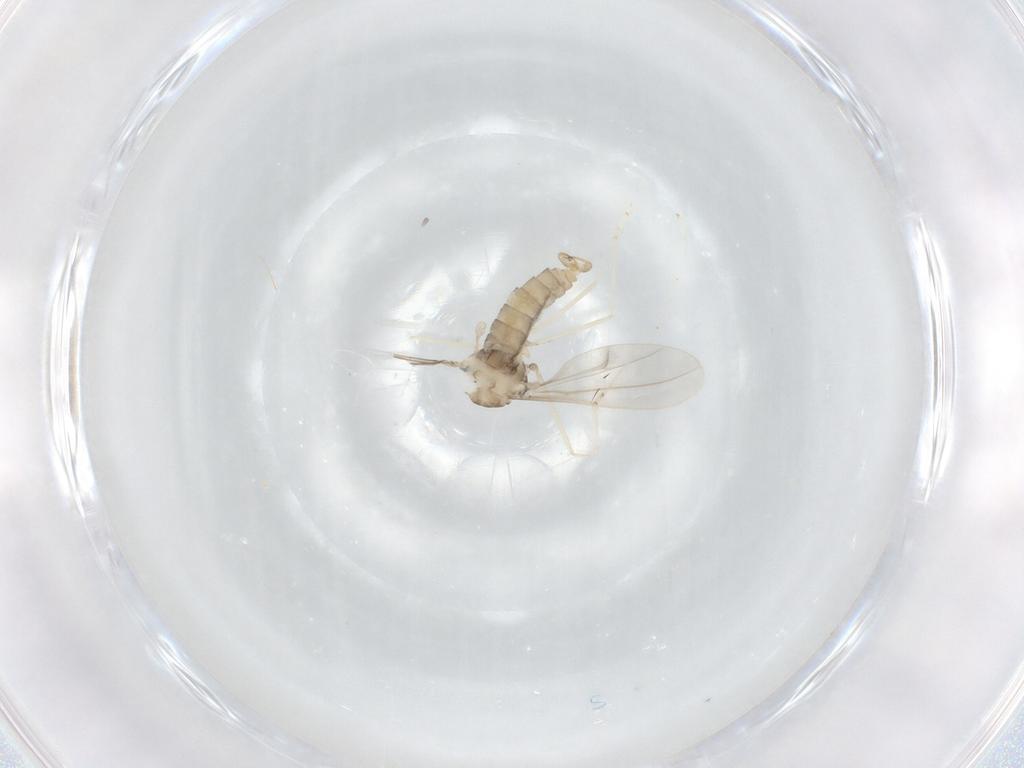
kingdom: Animalia
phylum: Arthropoda
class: Insecta
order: Diptera
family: Cecidomyiidae
